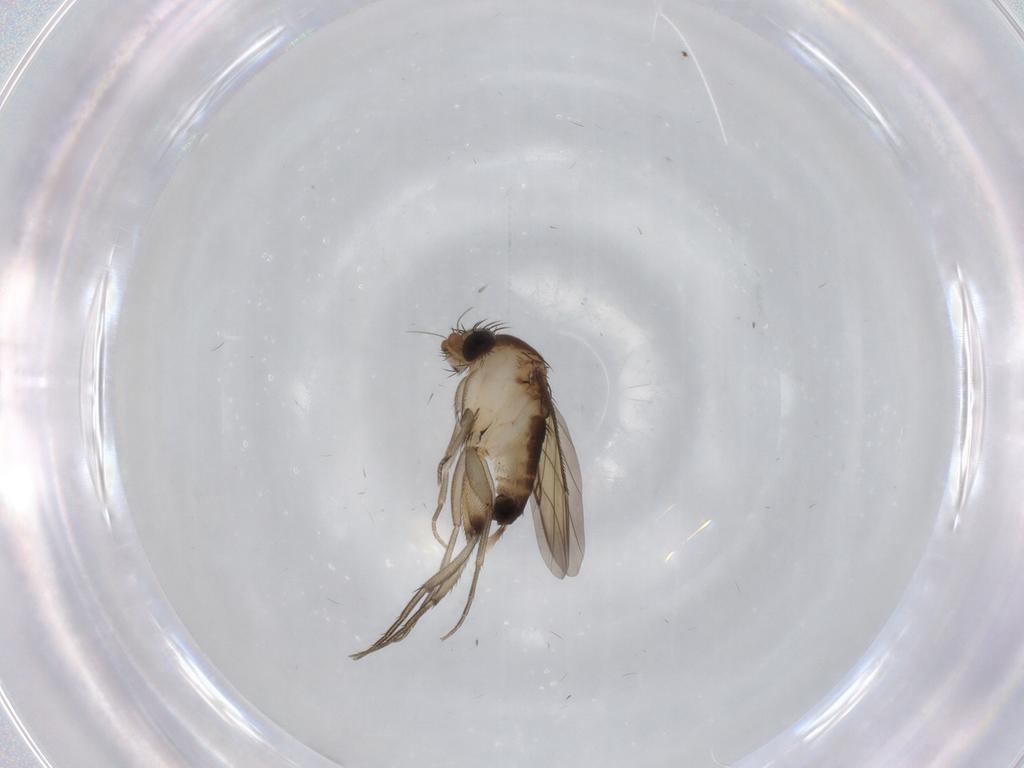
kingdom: Animalia
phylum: Arthropoda
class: Insecta
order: Diptera
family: Phoridae
